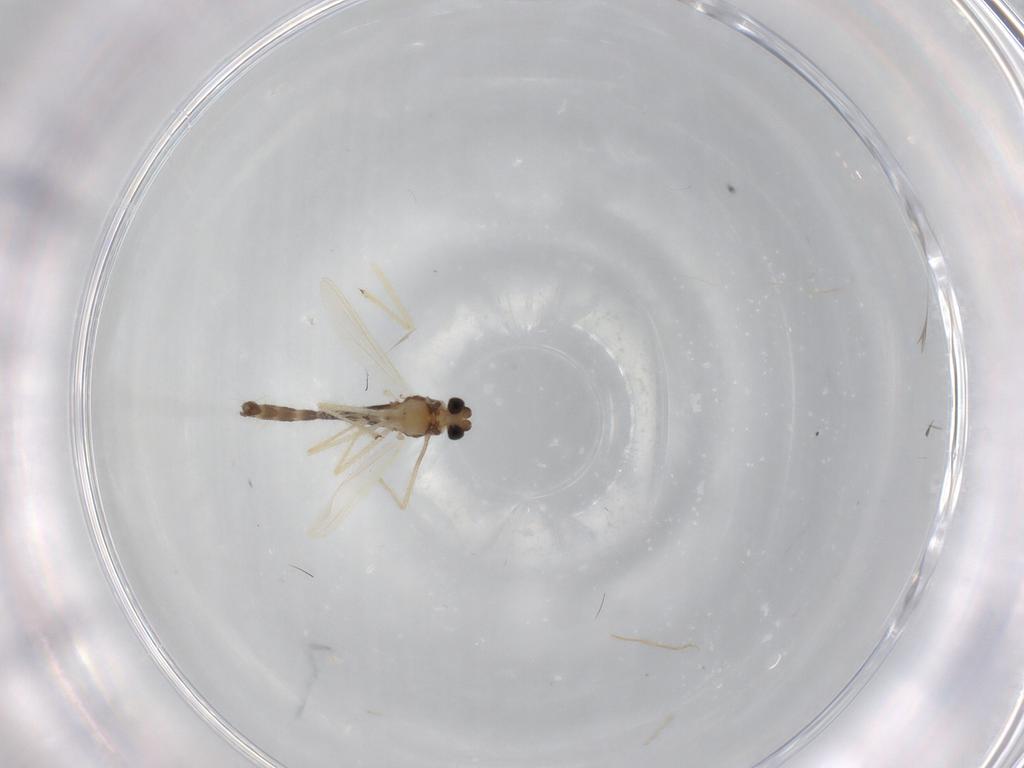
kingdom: Animalia
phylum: Arthropoda
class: Insecta
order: Diptera
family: Chironomidae
